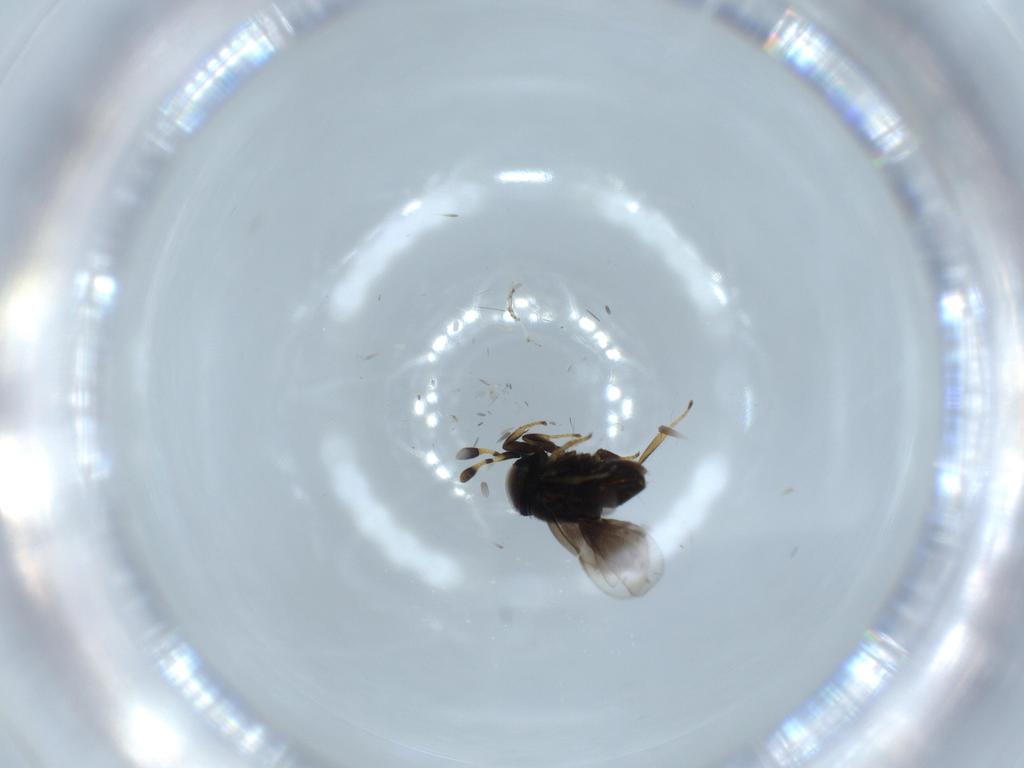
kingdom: Animalia
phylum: Arthropoda
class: Insecta
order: Hymenoptera
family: Encyrtidae
